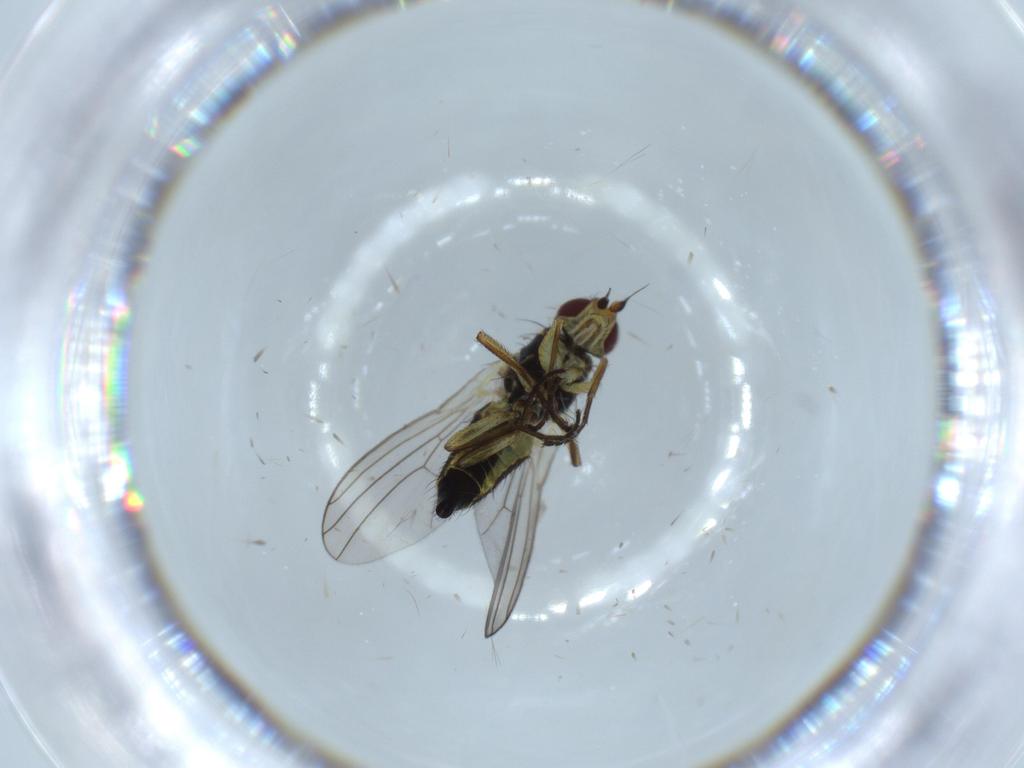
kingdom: Animalia
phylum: Arthropoda
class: Insecta
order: Diptera
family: Agromyzidae
